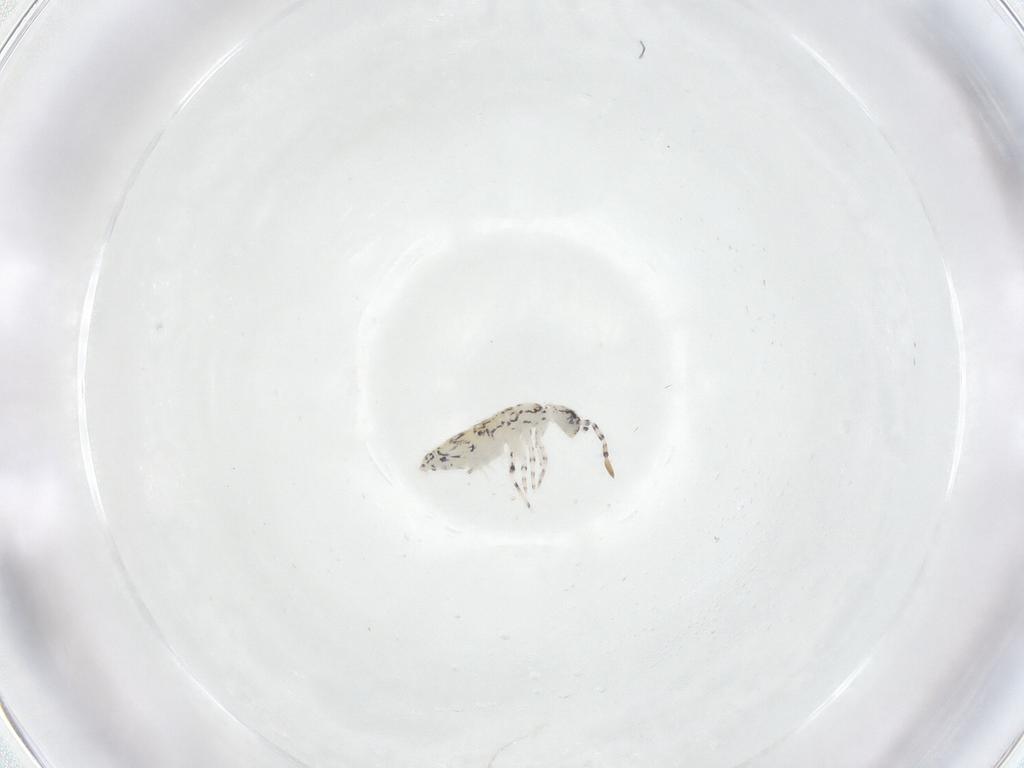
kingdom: Animalia
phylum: Arthropoda
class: Collembola
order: Entomobryomorpha
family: Entomobryidae
